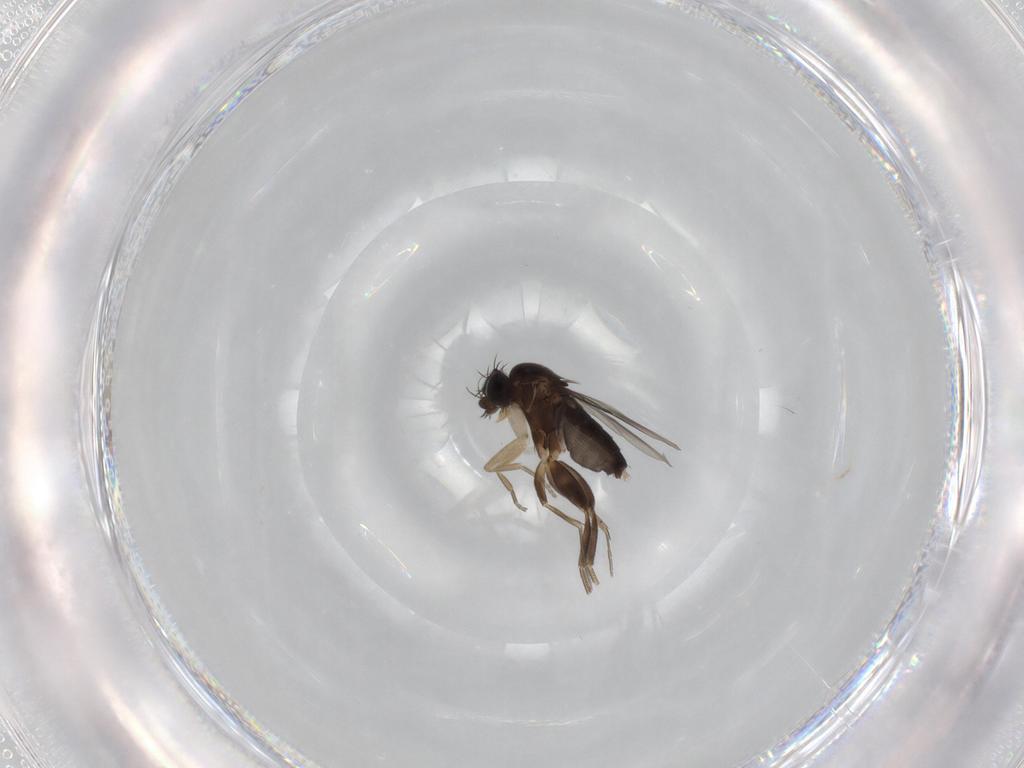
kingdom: Animalia
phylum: Arthropoda
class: Insecta
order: Diptera
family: Phoridae
